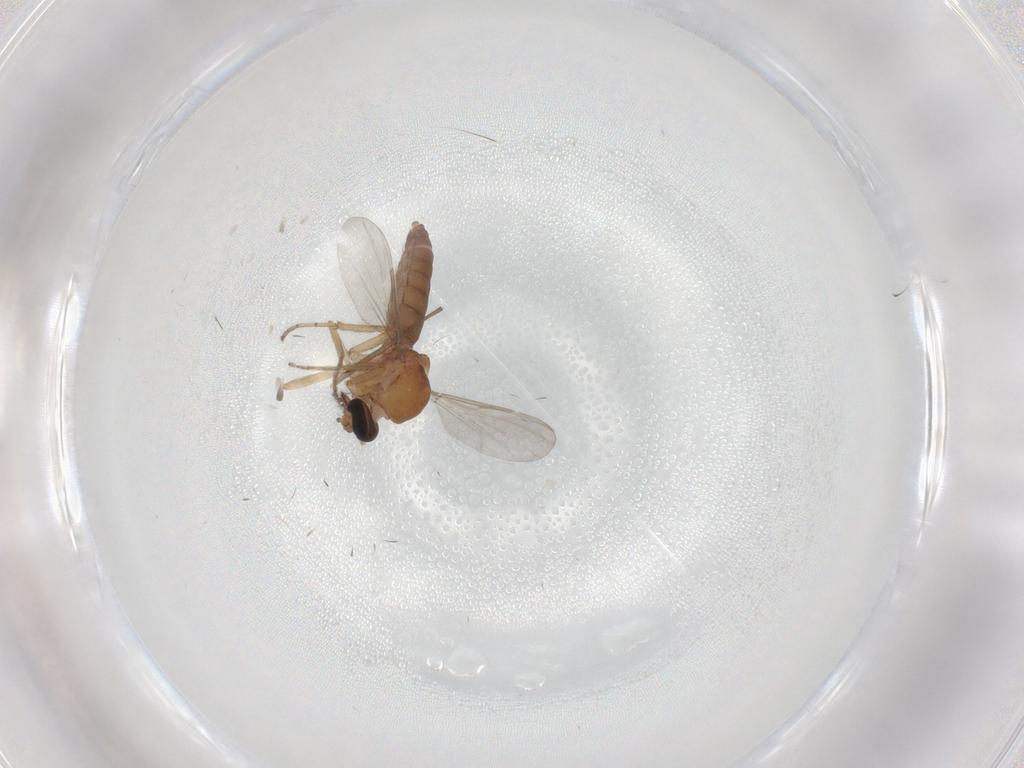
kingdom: Animalia
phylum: Arthropoda
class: Insecta
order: Diptera
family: Ceratopogonidae
